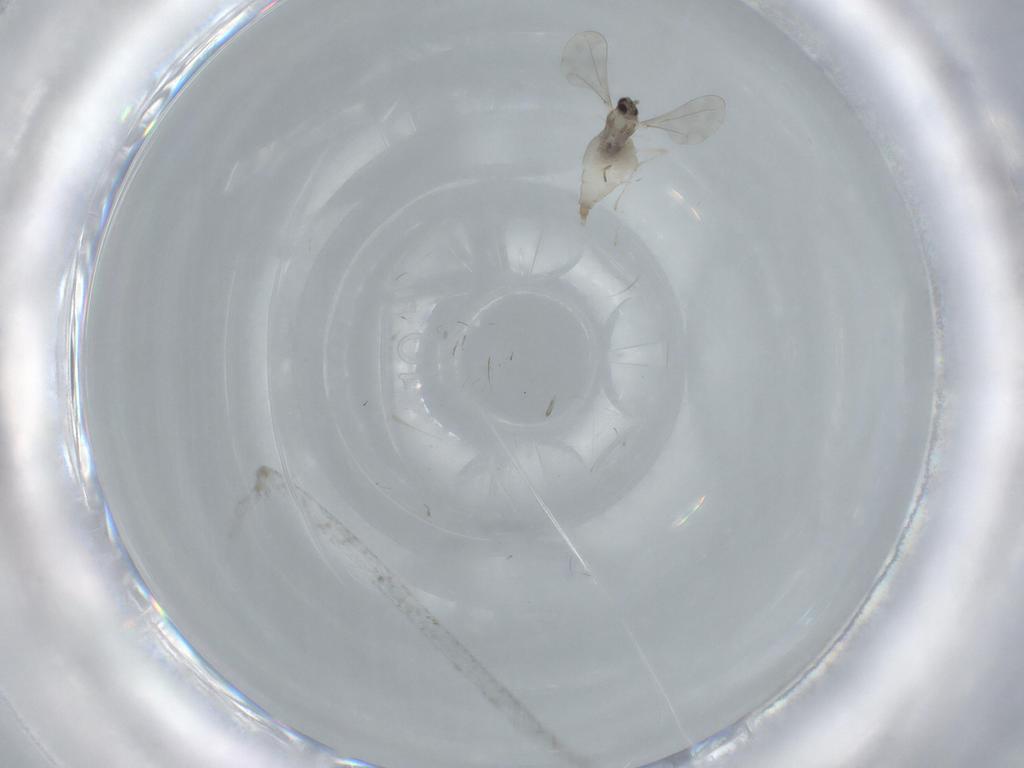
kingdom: Animalia
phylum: Arthropoda
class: Insecta
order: Diptera
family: Cecidomyiidae
